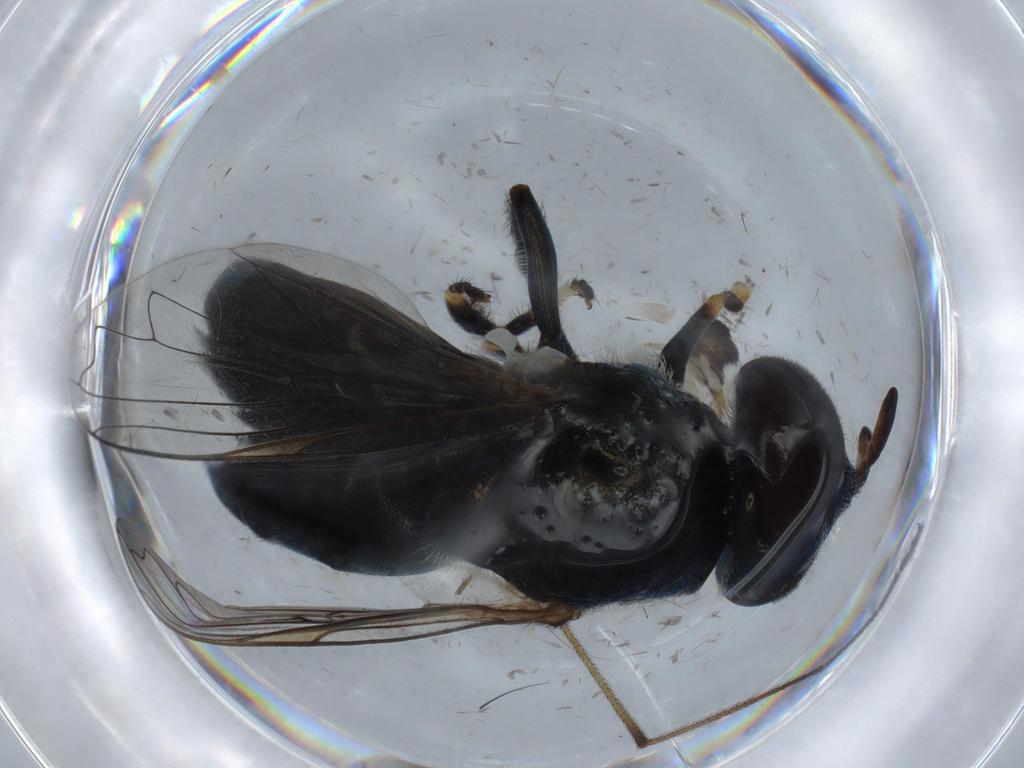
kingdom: Animalia
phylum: Arthropoda
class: Insecta
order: Diptera
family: Syrphidae
